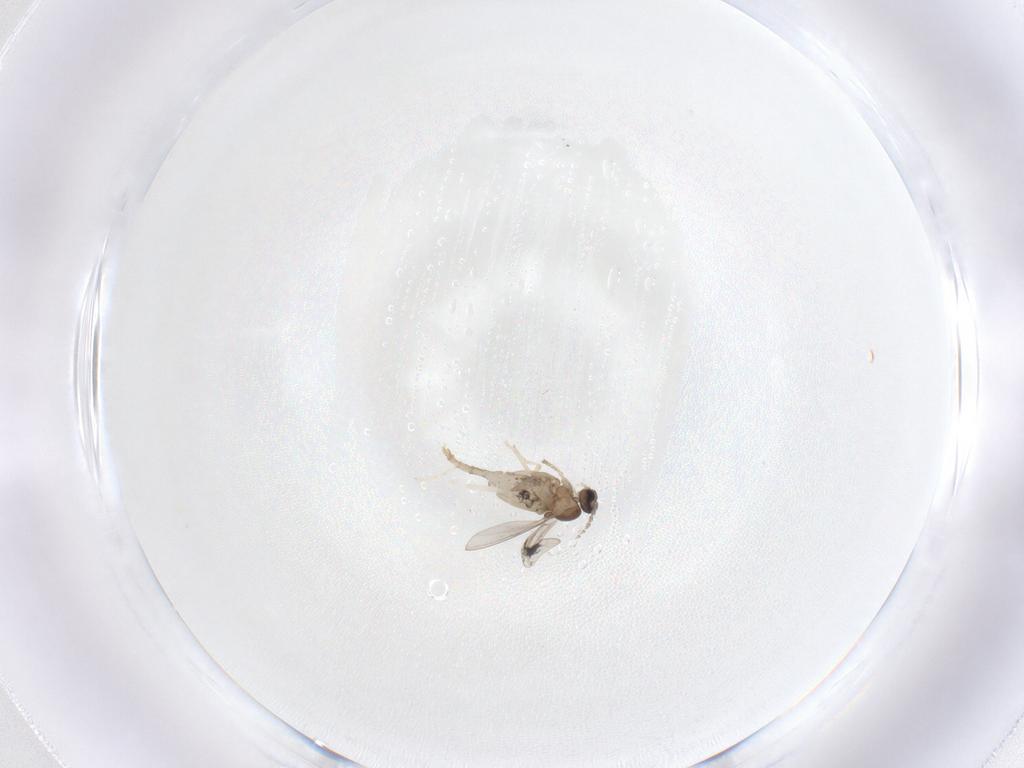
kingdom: Animalia
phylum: Arthropoda
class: Insecta
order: Diptera
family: Cecidomyiidae
